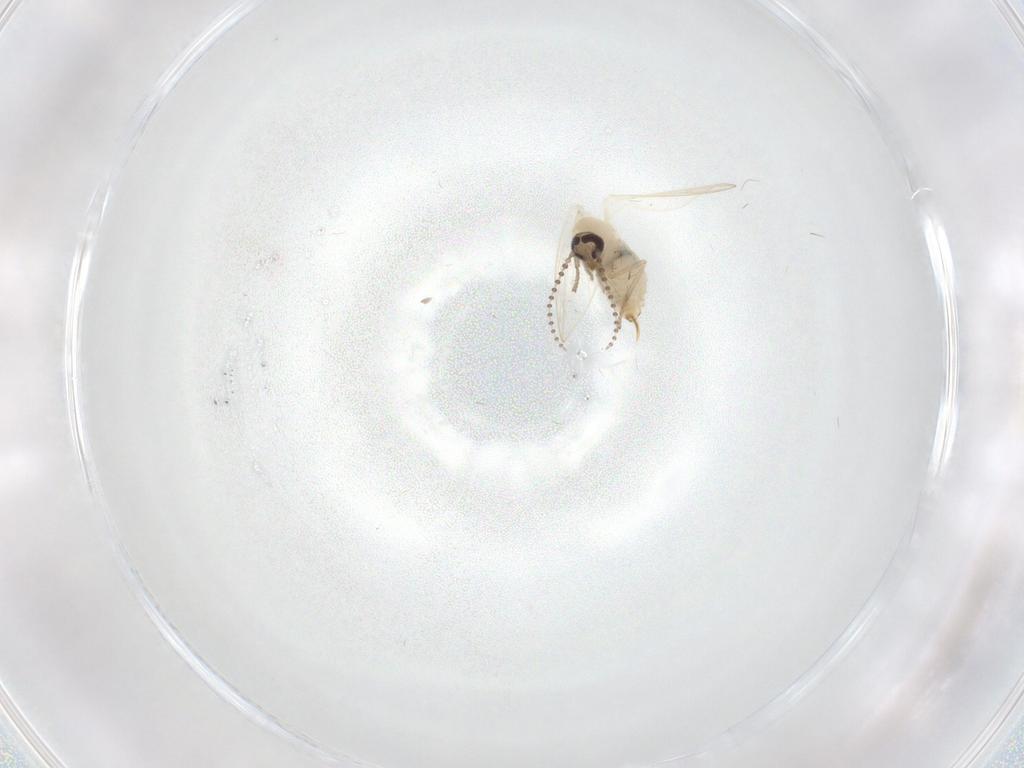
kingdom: Animalia
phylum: Arthropoda
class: Insecta
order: Diptera
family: Psychodidae
